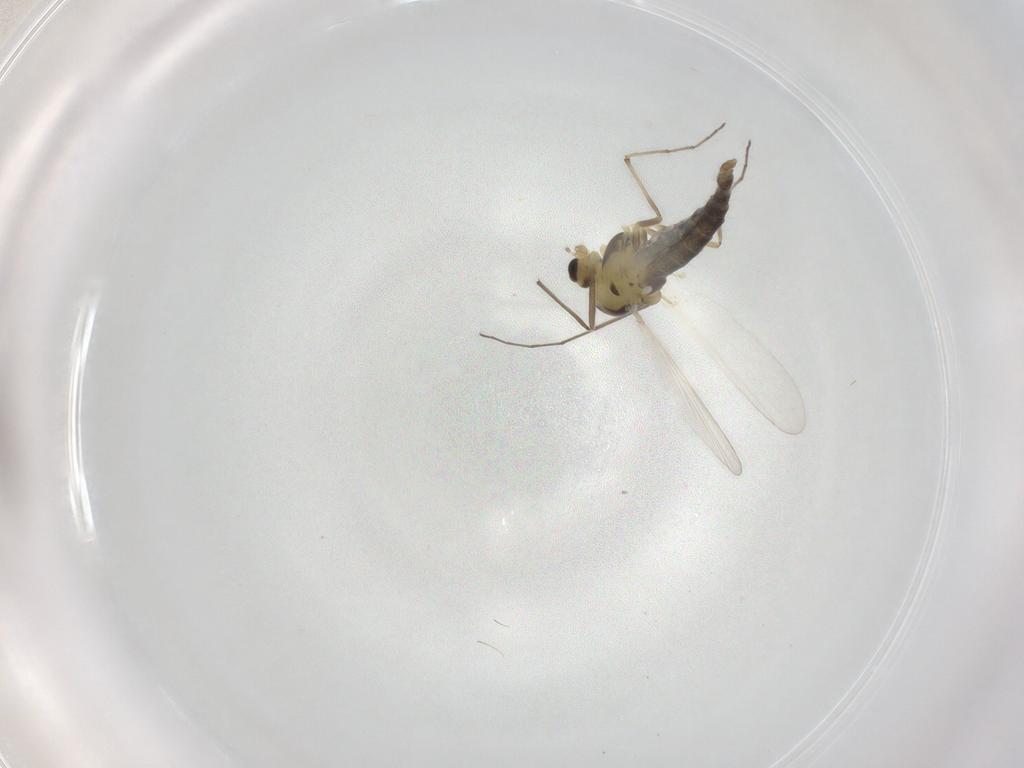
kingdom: Animalia
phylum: Arthropoda
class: Insecta
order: Diptera
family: Chironomidae
